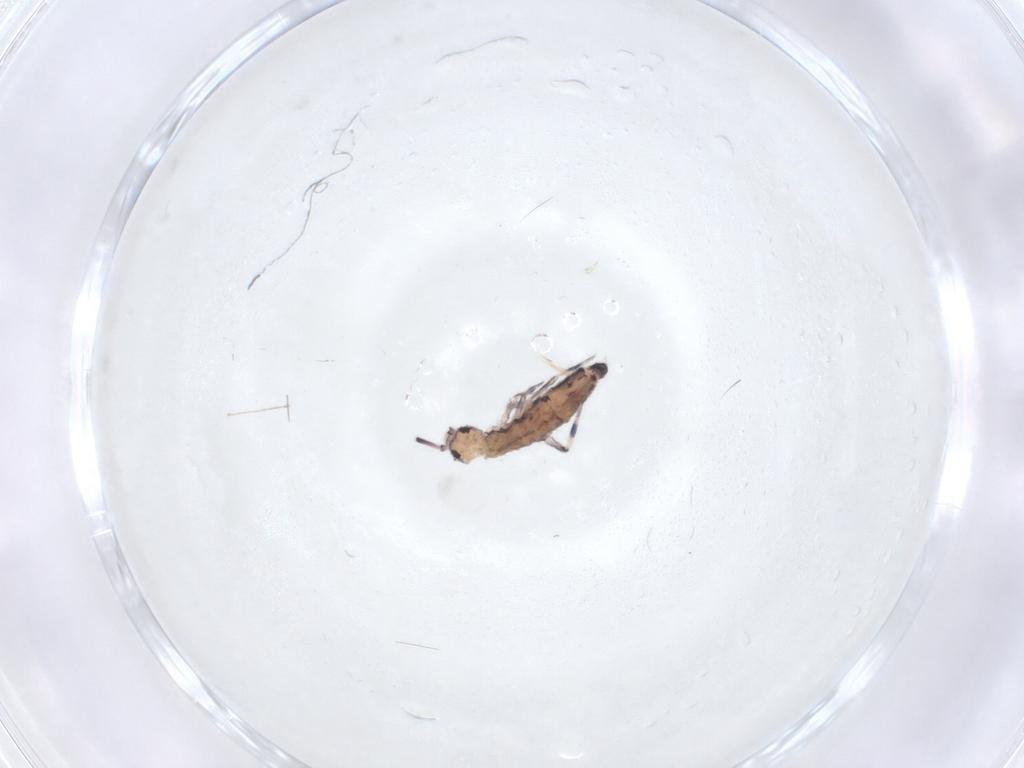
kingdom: Animalia
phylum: Arthropoda
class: Collembola
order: Entomobryomorpha
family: Entomobryidae
